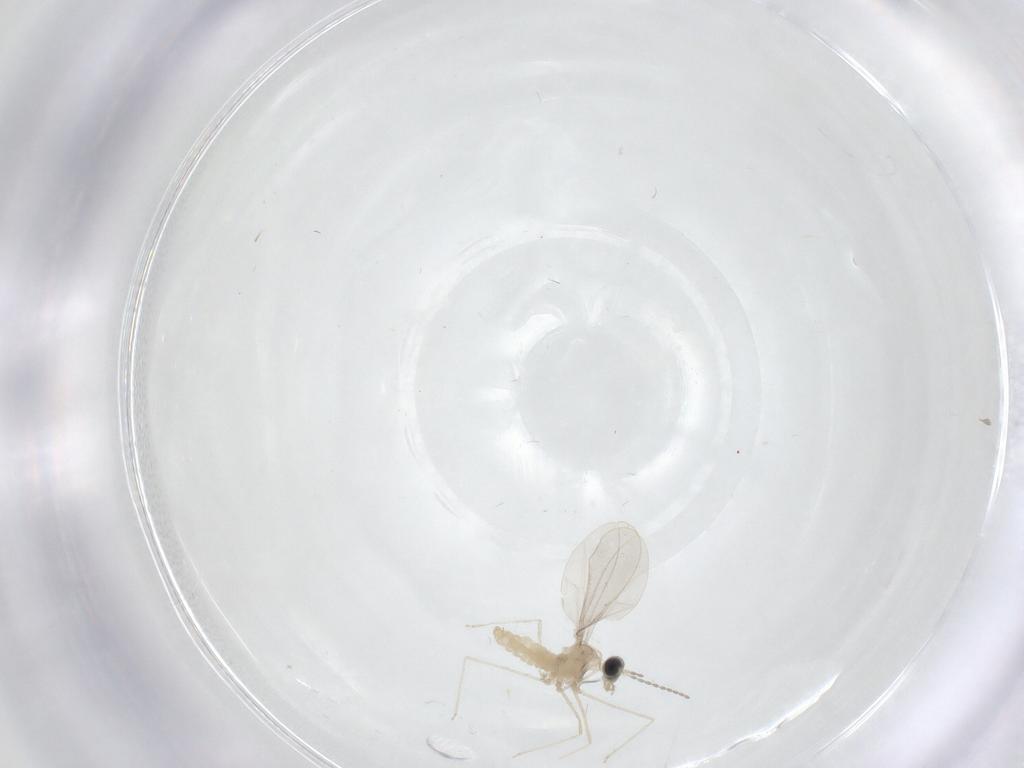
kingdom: Animalia
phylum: Arthropoda
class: Insecta
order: Diptera
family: Cecidomyiidae
